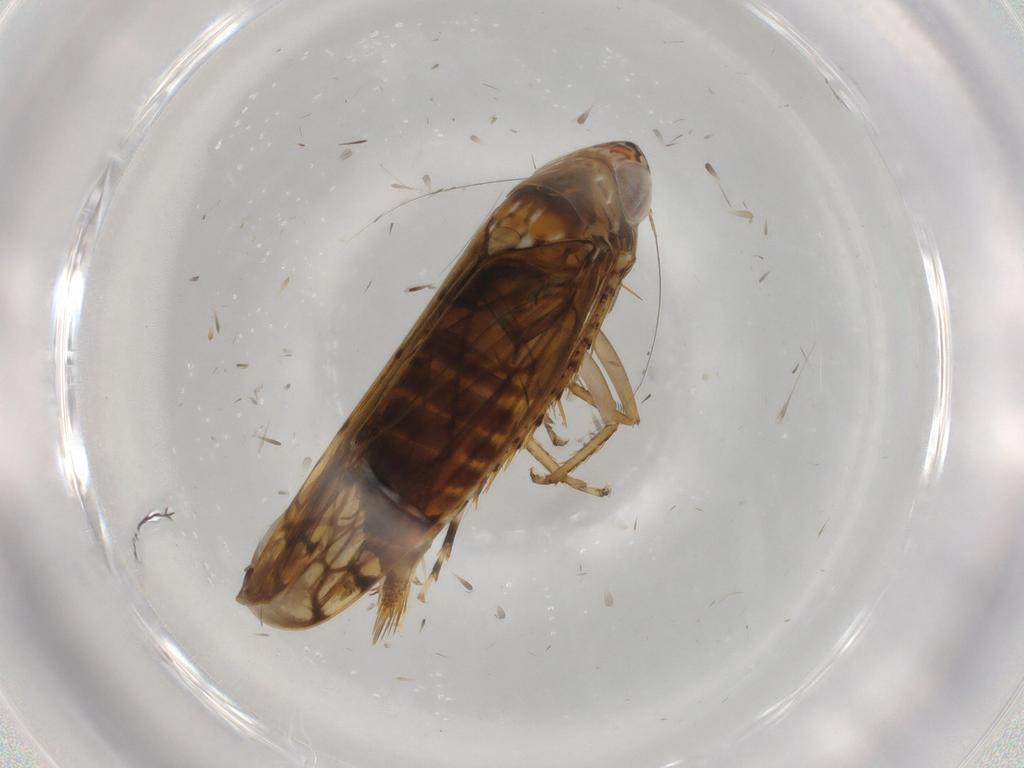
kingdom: Animalia
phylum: Arthropoda
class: Insecta
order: Hemiptera
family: Cicadellidae
